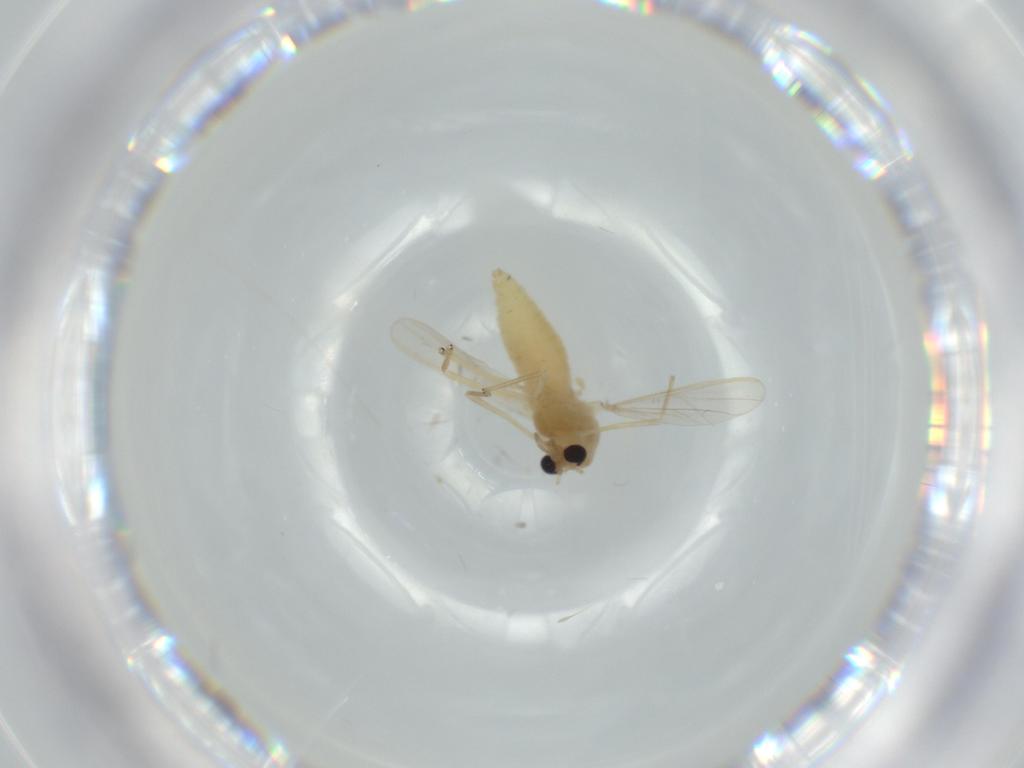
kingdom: Animalia
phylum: Arthropoda
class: Insecta
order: Diptera
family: Chironomidae
